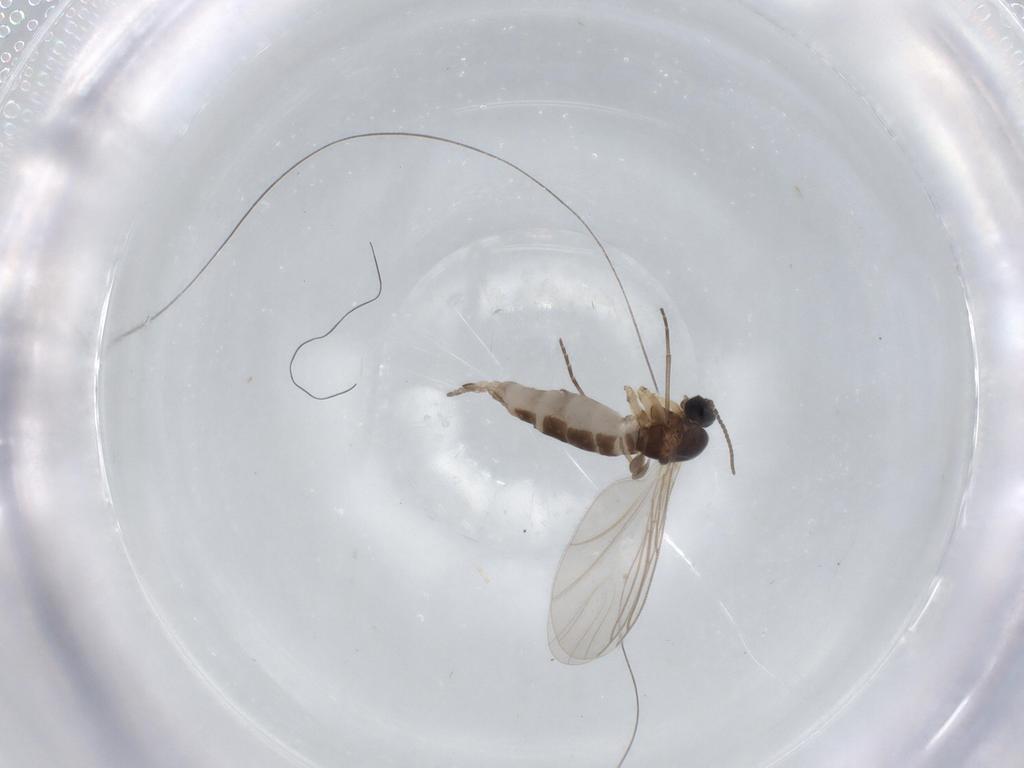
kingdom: Animalia
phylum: Arthropoda
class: Insecta
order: Diptera
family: Sciaridae
